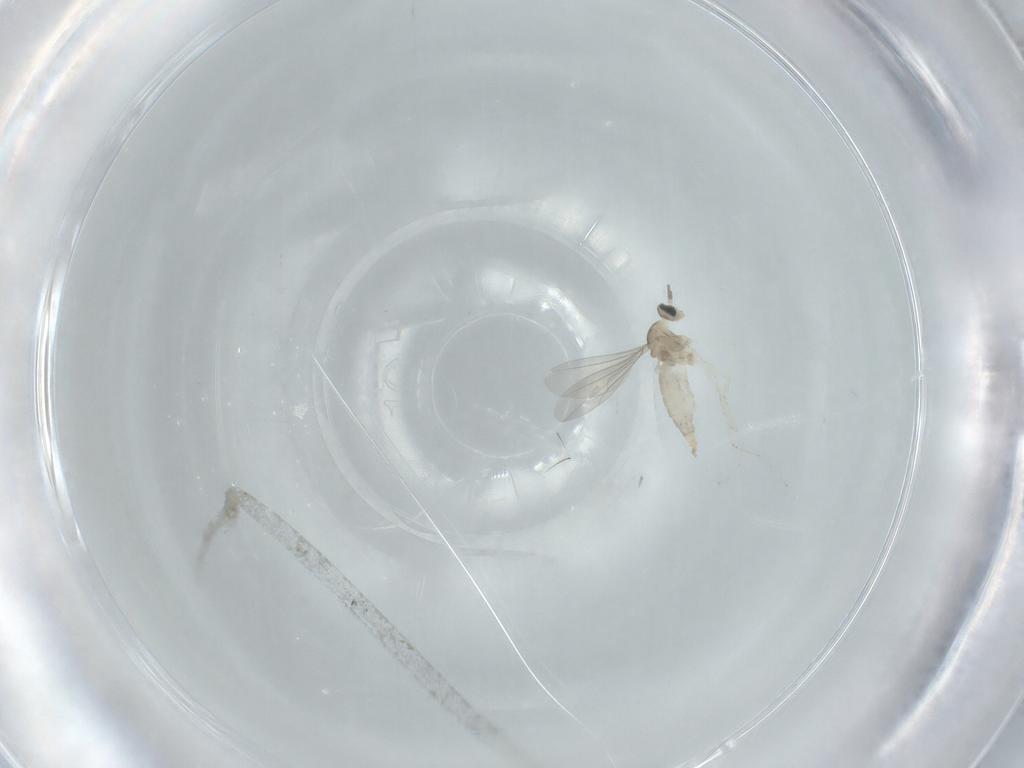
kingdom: Animalia
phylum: Arthropoda
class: Insecta
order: Diptera
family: Cecidomyiidae
